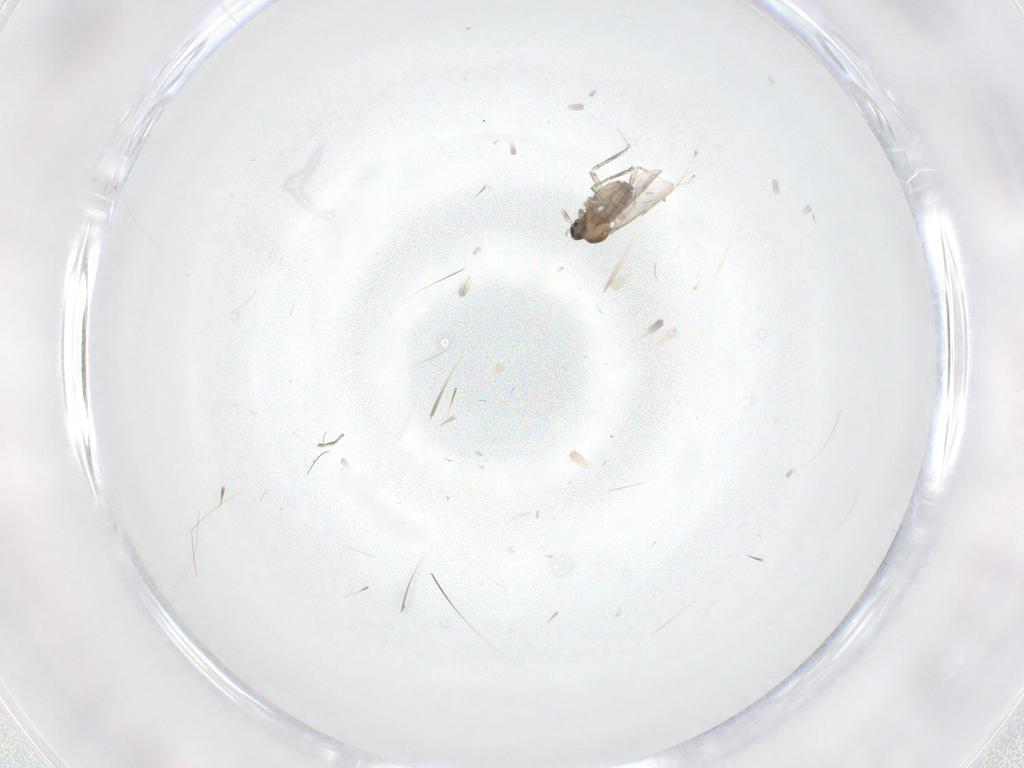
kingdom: Animalia
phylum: Arthropoda
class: Insecta
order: Diptera
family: Cecidomyiidae
